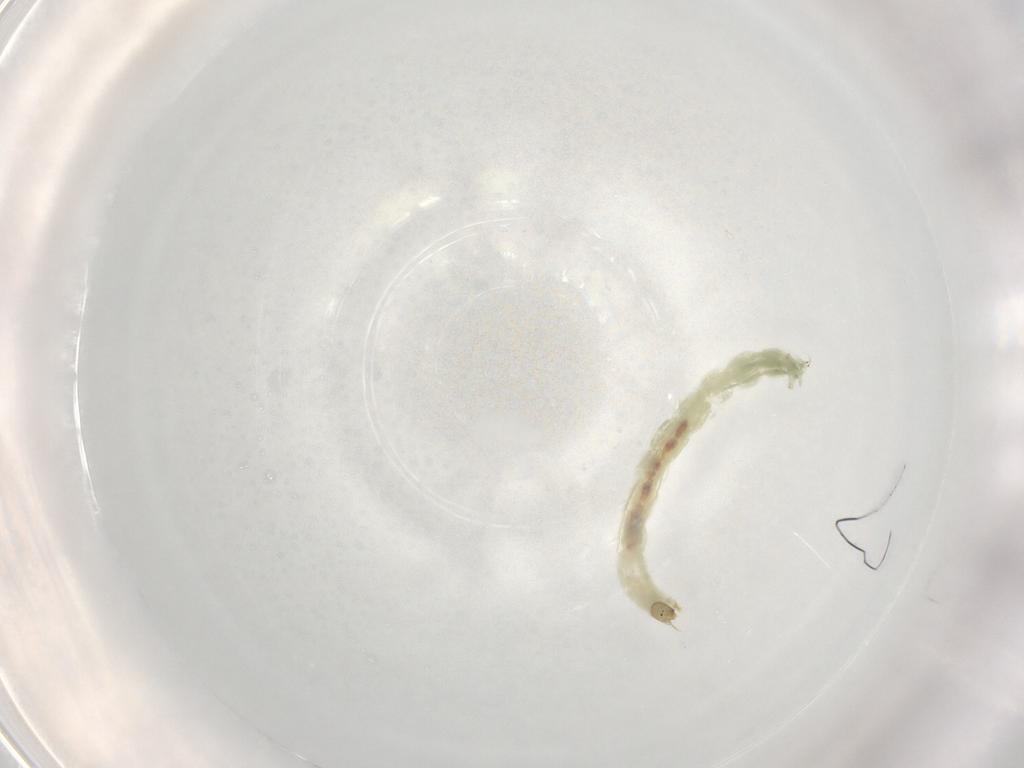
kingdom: Animalia
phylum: Arthropoda
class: Insecta
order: Diptera
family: Chironomidae
